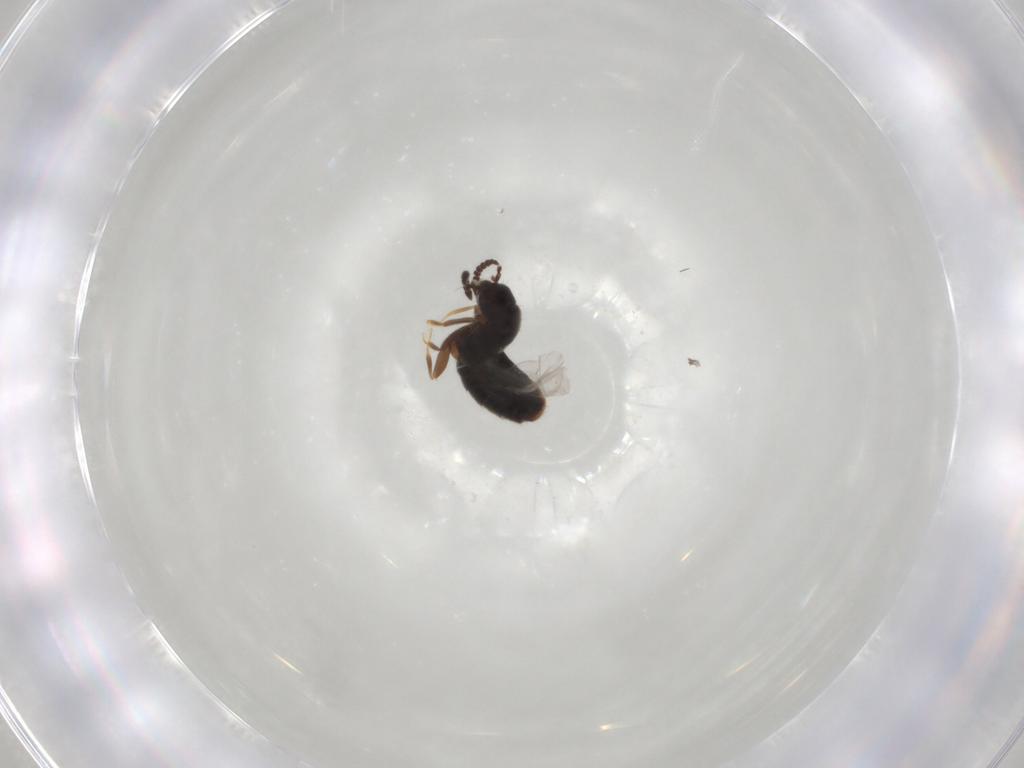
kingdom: Animalia
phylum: Arthropoda
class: Insecta
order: Coleoptera
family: Staphylinidae
